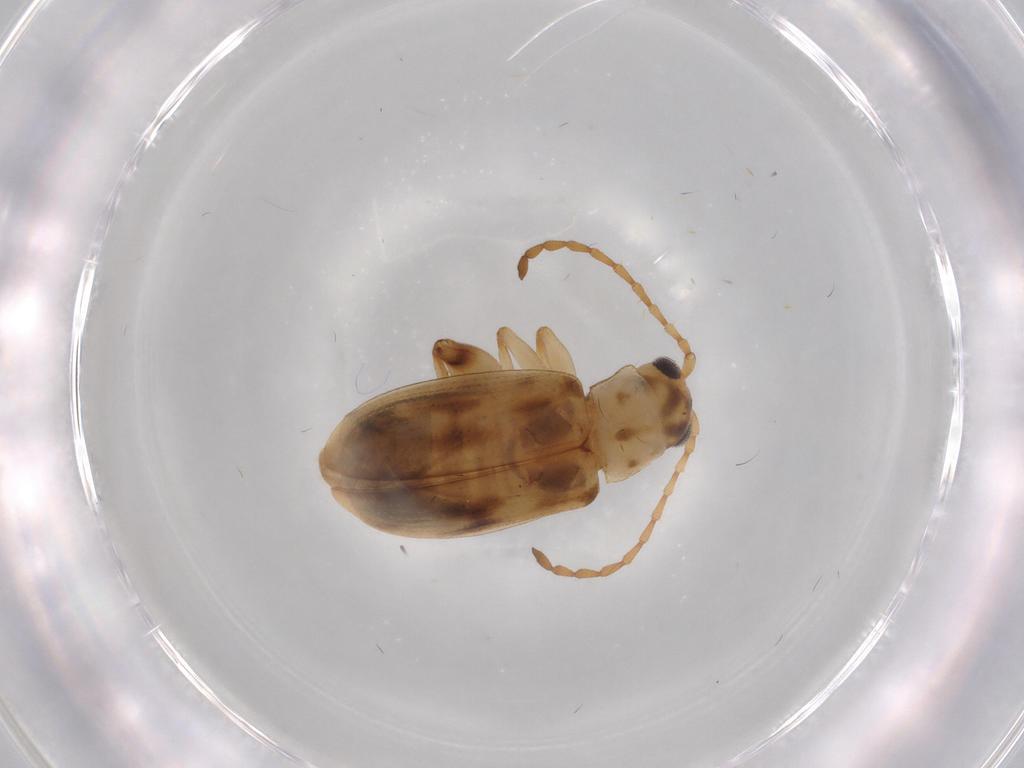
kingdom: Animalia
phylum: Arthropoda
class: Insecta
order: Coleoptera
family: Chrysomelidae
